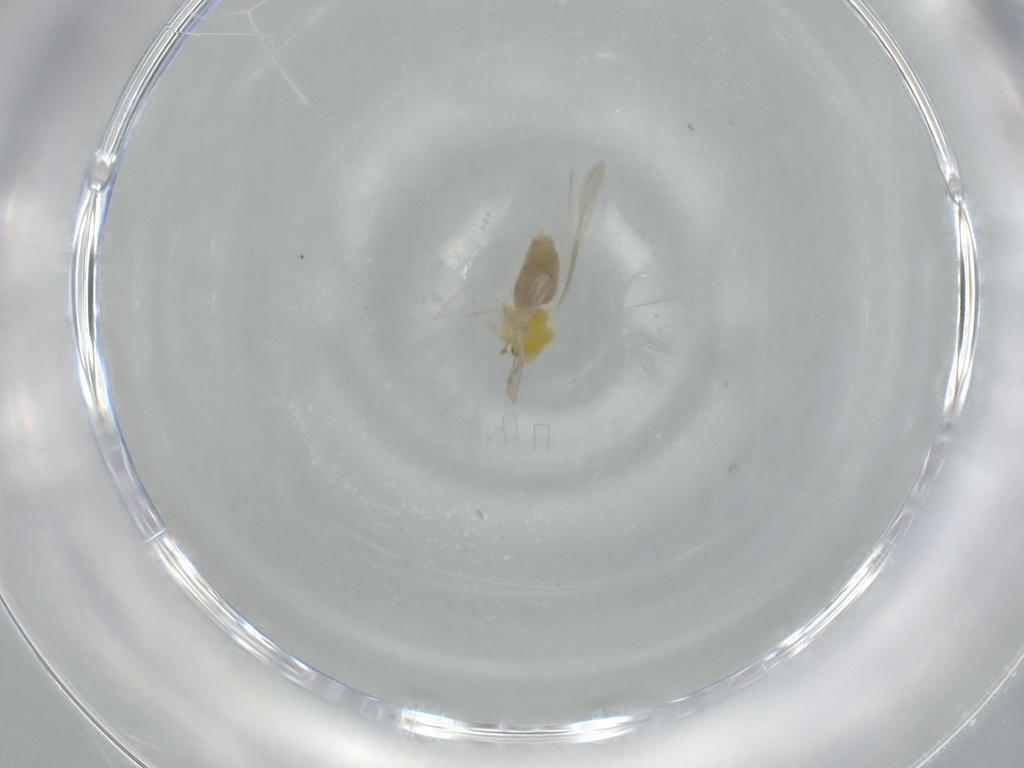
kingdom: Animalia
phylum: Arthropoda
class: Insecta
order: Hemiptera
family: Aleyrodidae
